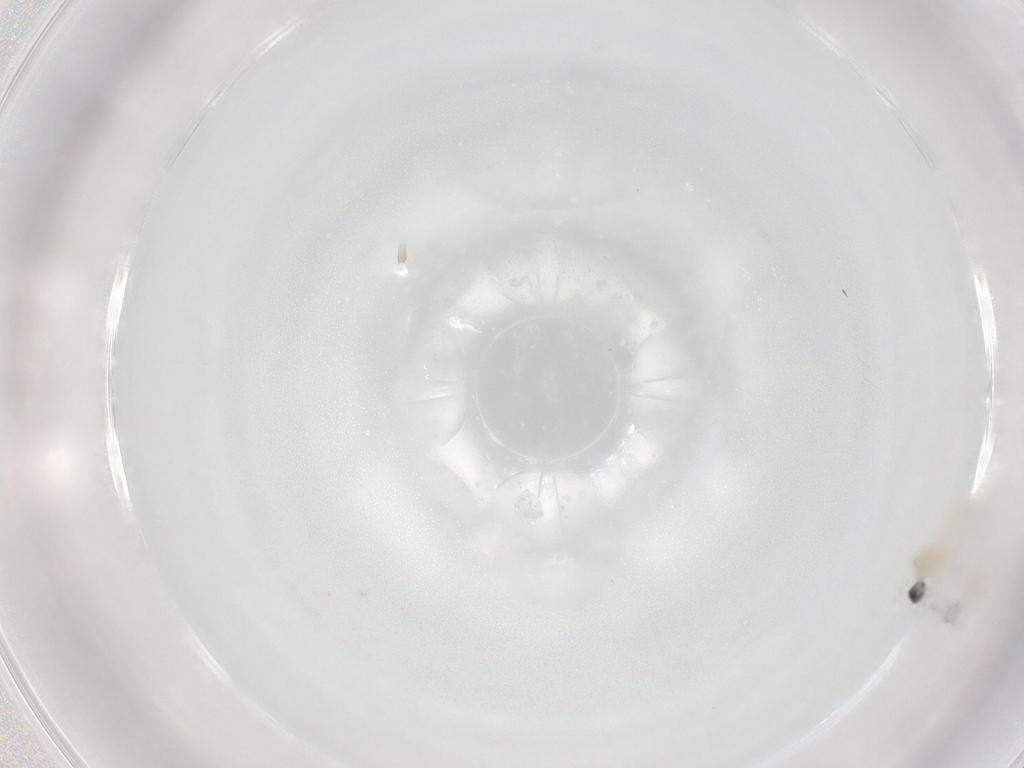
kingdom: Animalia
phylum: Arthropoda
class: Insecta
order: Diptera
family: Cecidomyiidae
